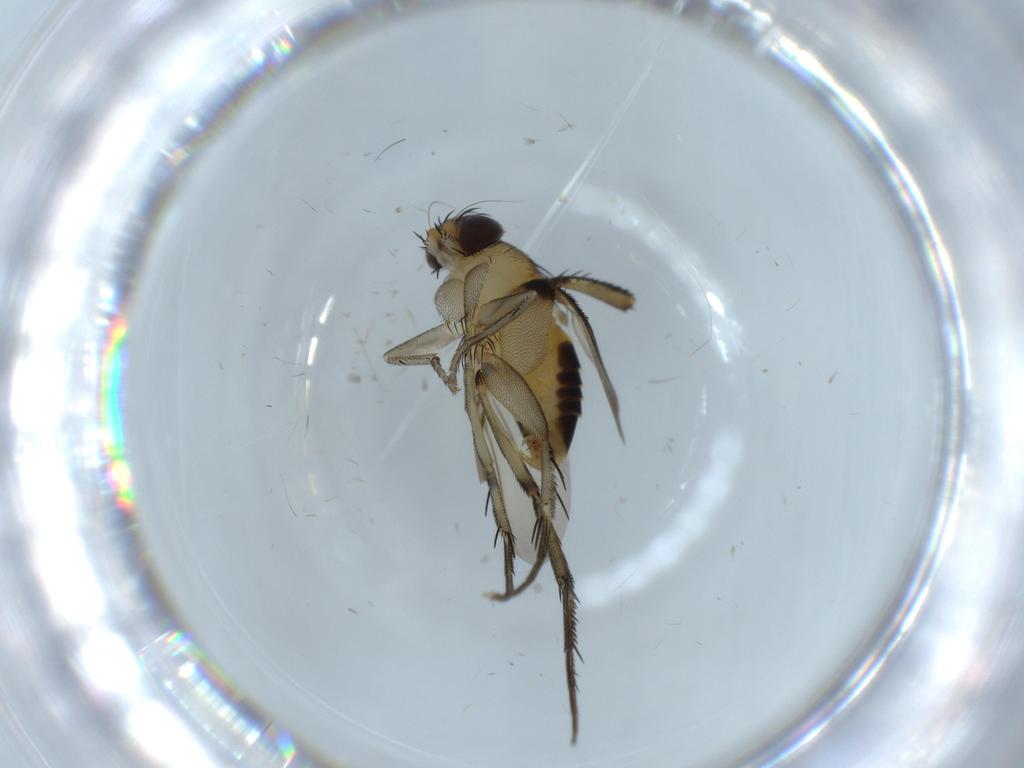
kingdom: Animalia
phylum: Arthropoda
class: Insecta
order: Diptera
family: Phoridae
